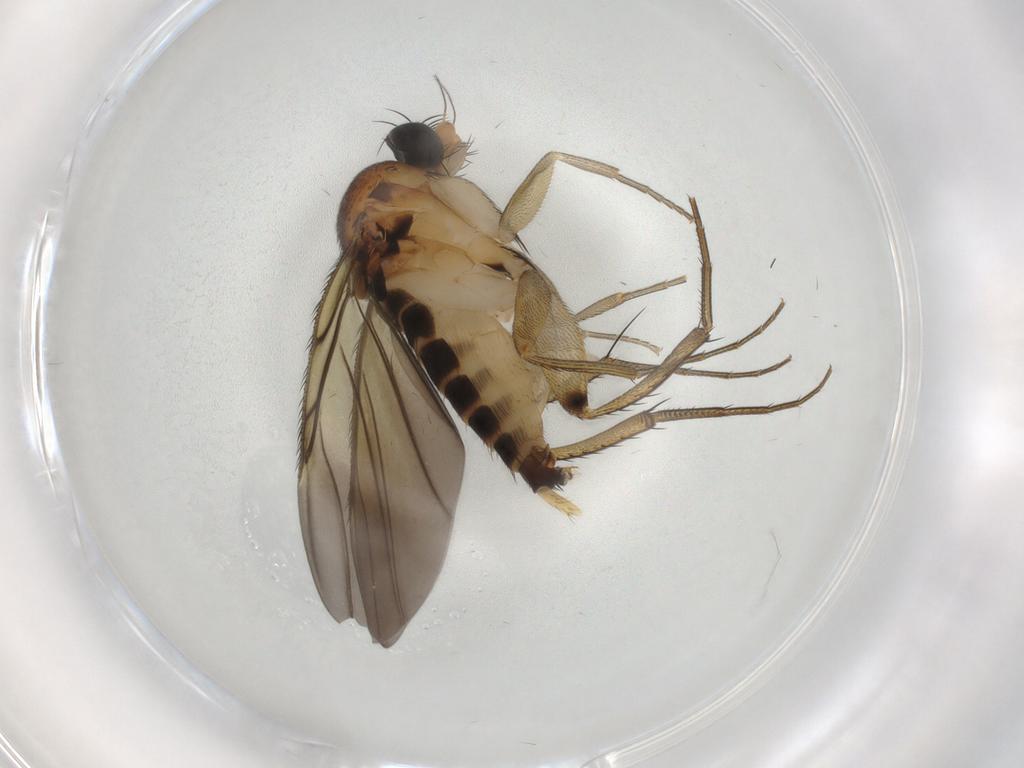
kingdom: Animalia
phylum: Arthropoda
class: Insecta
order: Diptera
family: Phoridae
